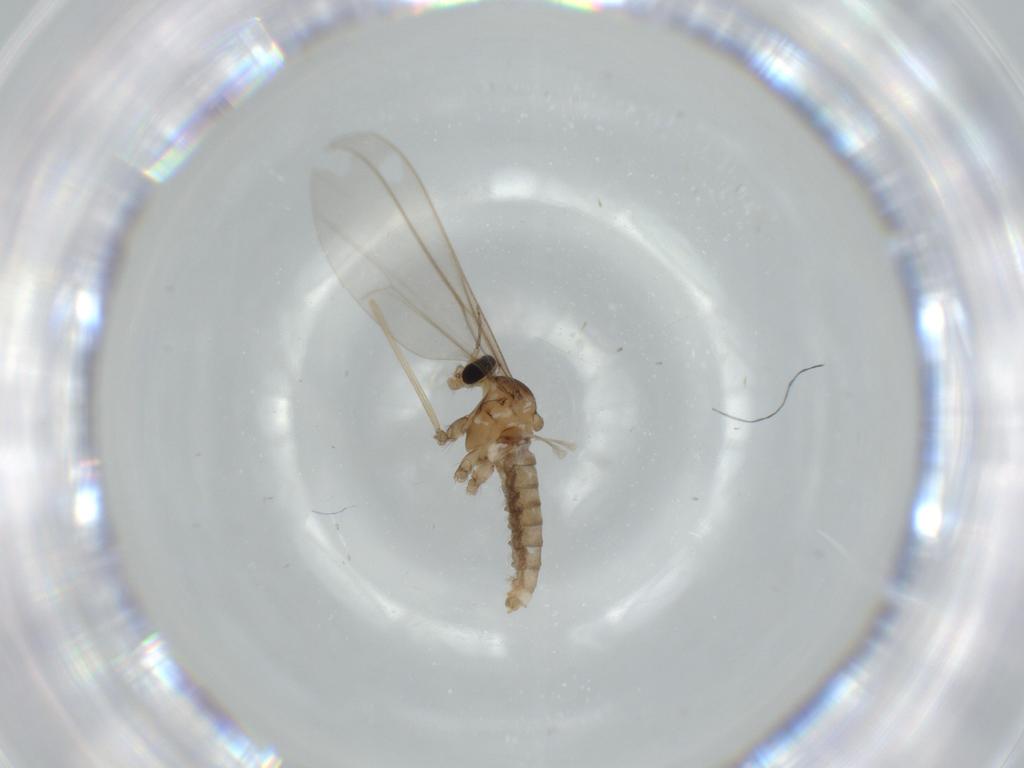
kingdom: Animalia
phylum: Arthropoda
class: Insecta
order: Diptera
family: Cecidomyiidae
